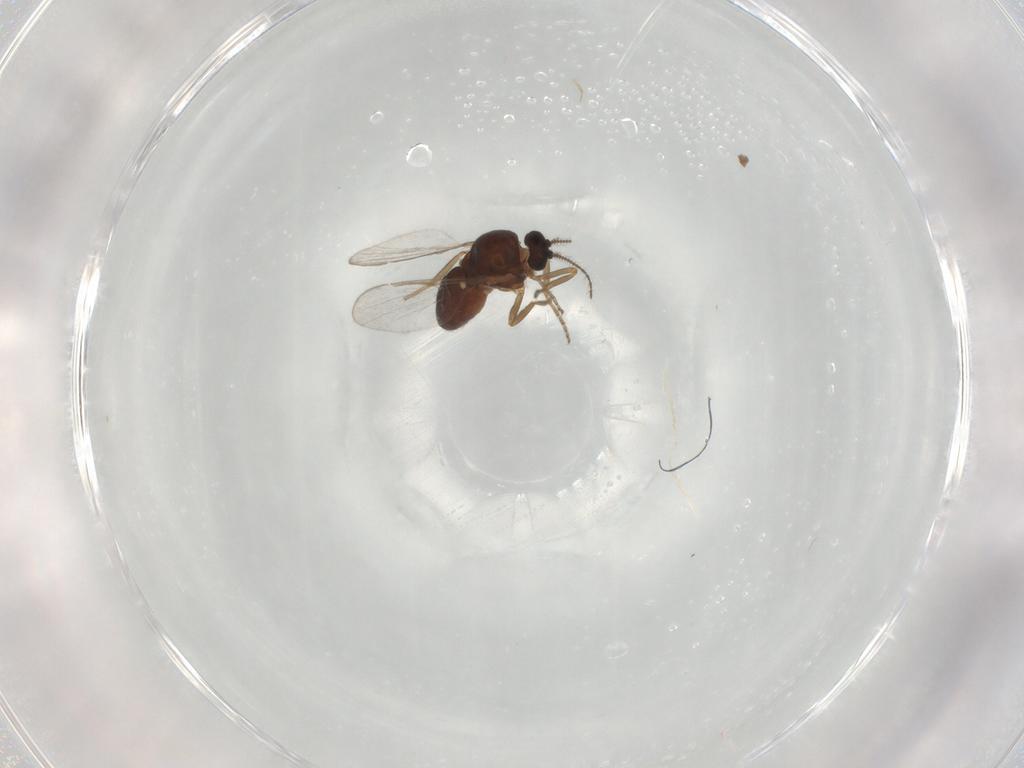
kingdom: Animalia
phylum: Arthropoda
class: Insecta
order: Diptera
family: Ceratopogonidae
